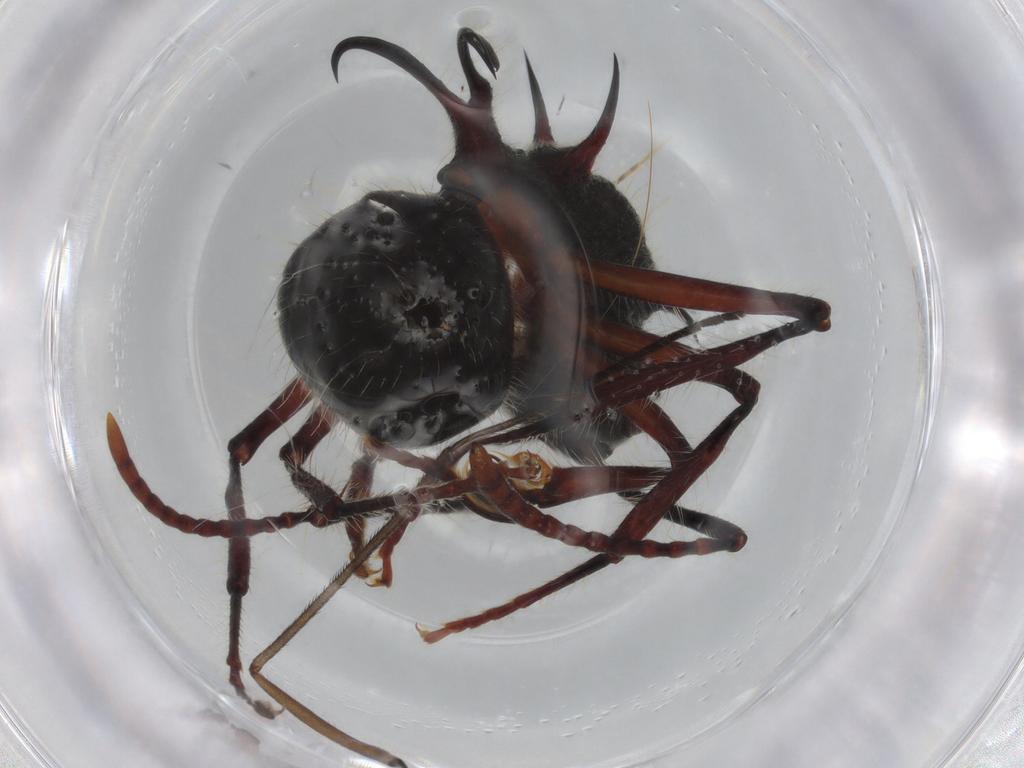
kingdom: Animalia
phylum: Arthropoda
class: Insecta
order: Hymenoptera
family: Formicidae
